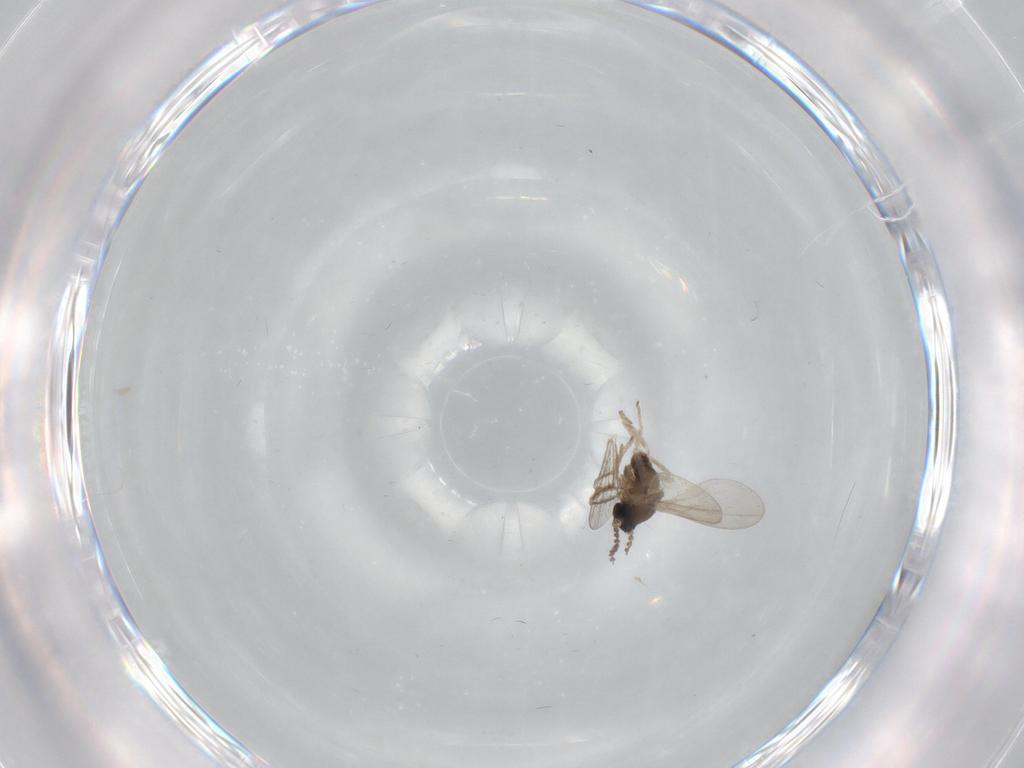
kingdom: Animalia
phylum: Arthropoda
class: Insecta
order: Diptera
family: Cecidomyiidae
